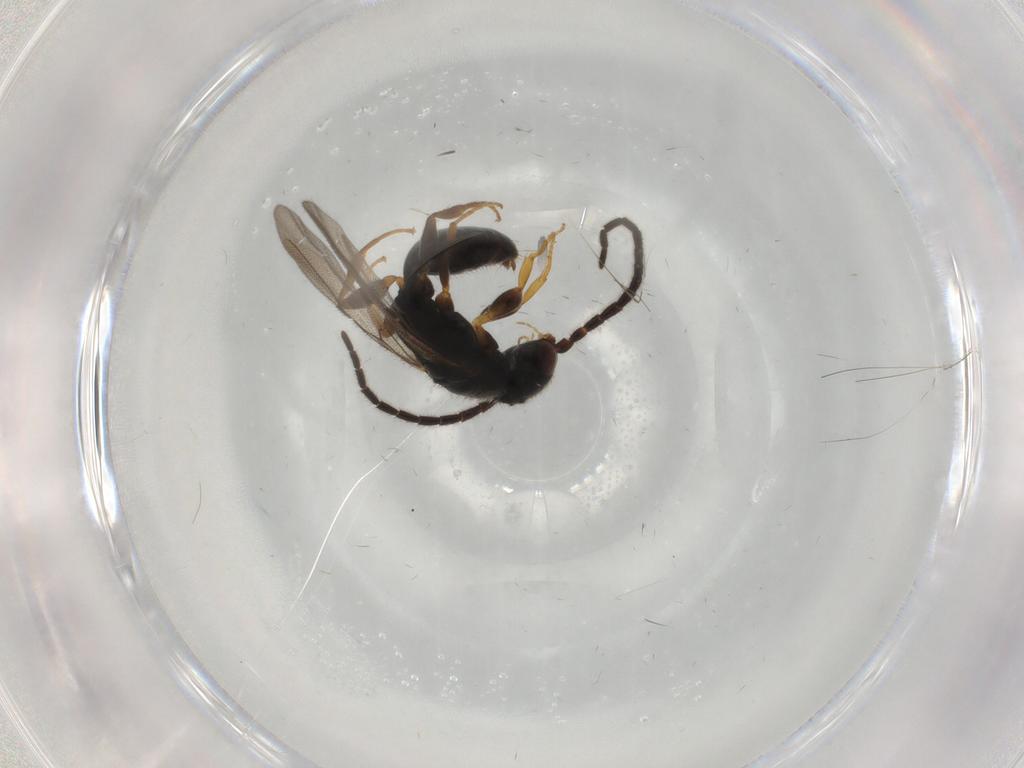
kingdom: Animalia
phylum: Arthropoda
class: Insecta
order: Hymenoptera
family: Bethylidae
